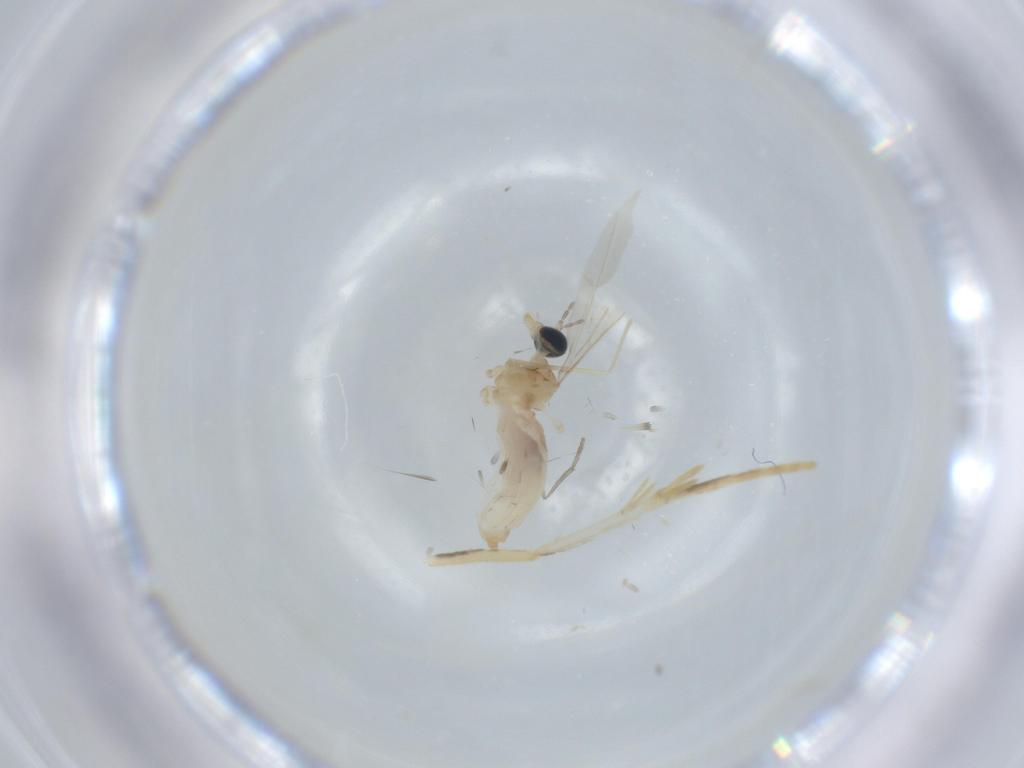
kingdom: Animalia
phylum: Arthropoda
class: Insecta
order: Diptera
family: Cecidomyiidae
